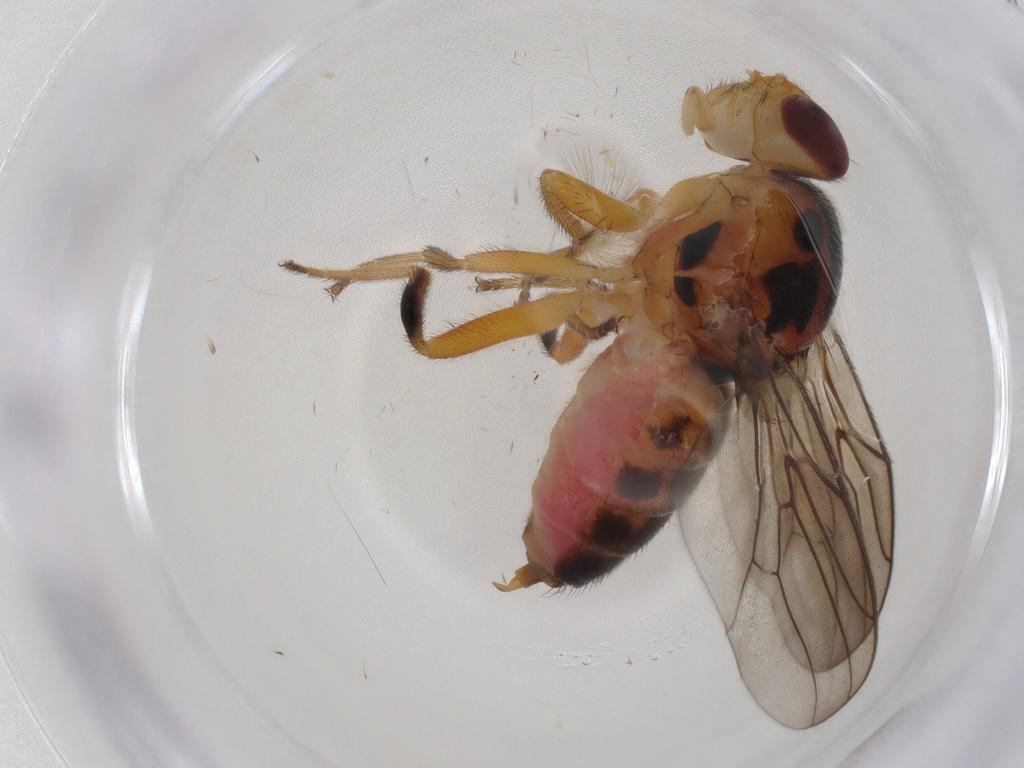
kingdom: Animalia
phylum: Arthropoda
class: Insecta
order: Diptera
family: Chloropidae
